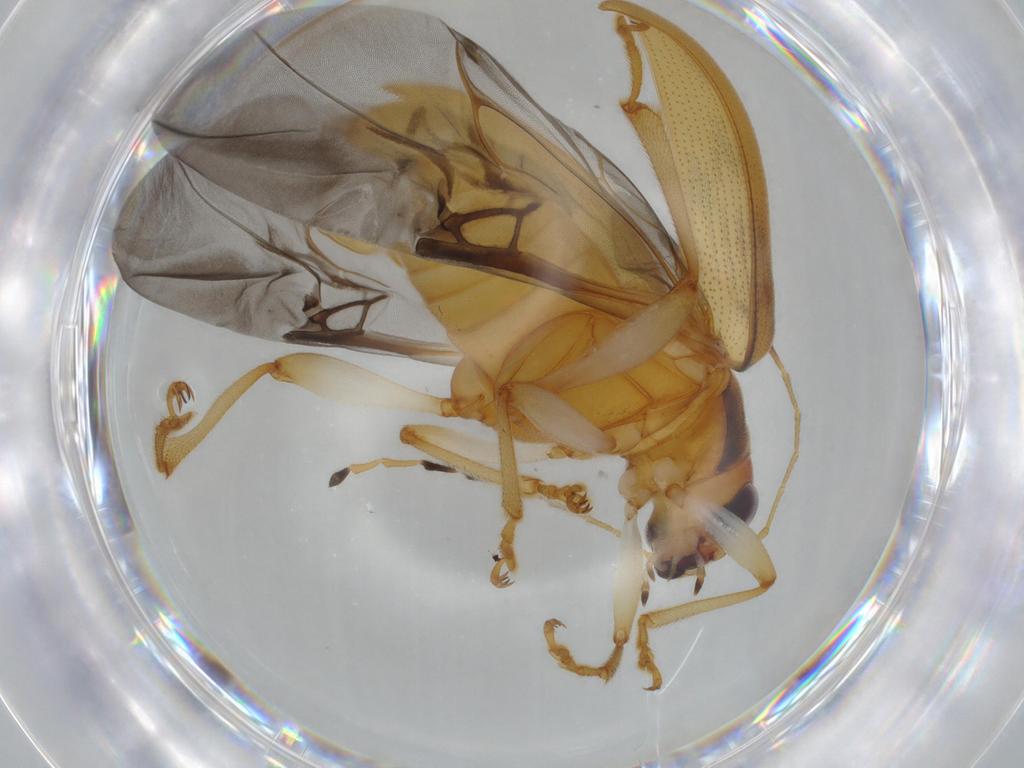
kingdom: Animalia
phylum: Arthropoda
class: Insecta
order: Coleoptera
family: Chrysomelidae
